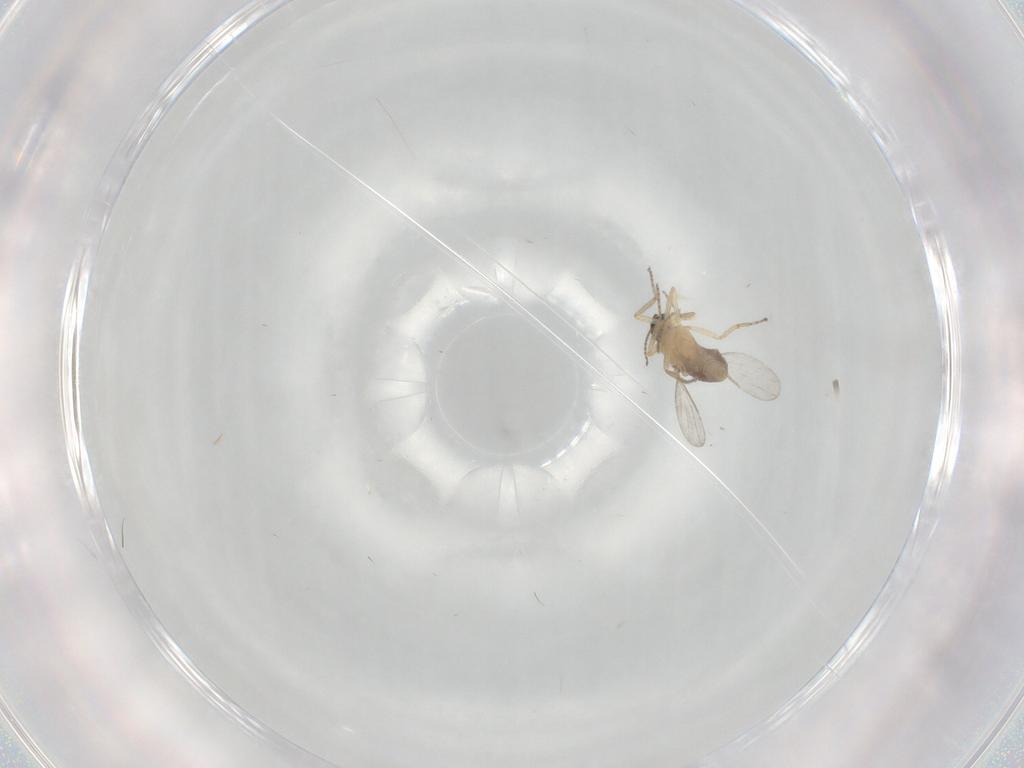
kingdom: Animalia
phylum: Arthropoda
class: Insecta
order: Diptera
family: Ceratopogonidae
